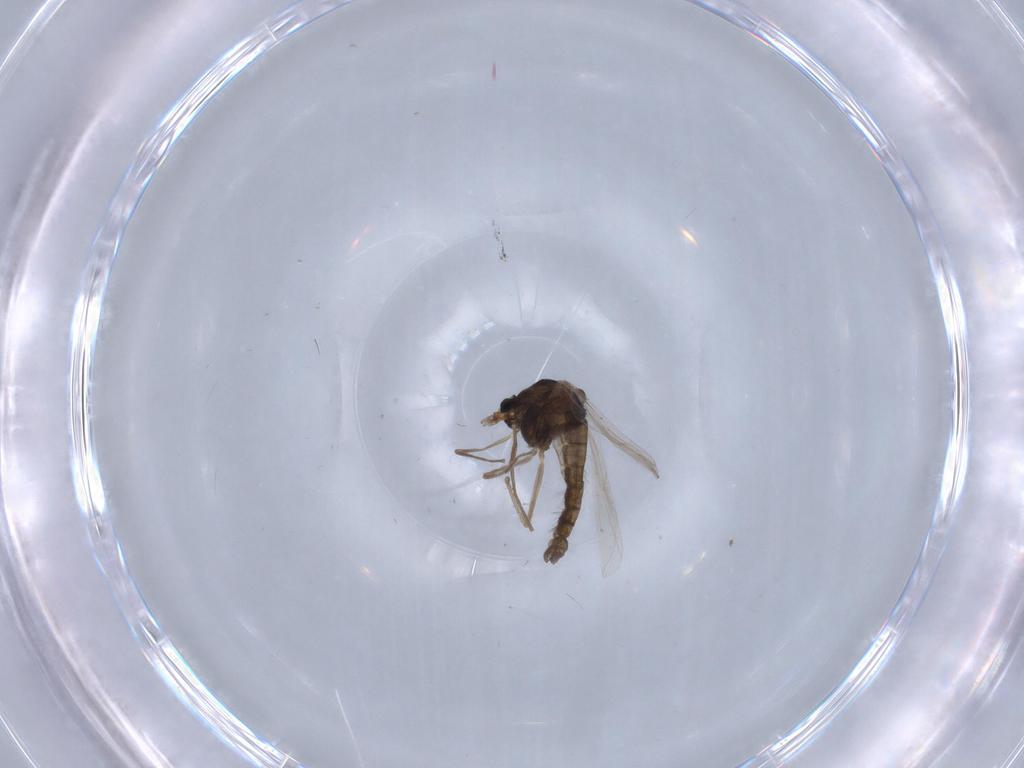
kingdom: Animalia
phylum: Arthropoda
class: Insecta
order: Diptera
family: Chironomidae
